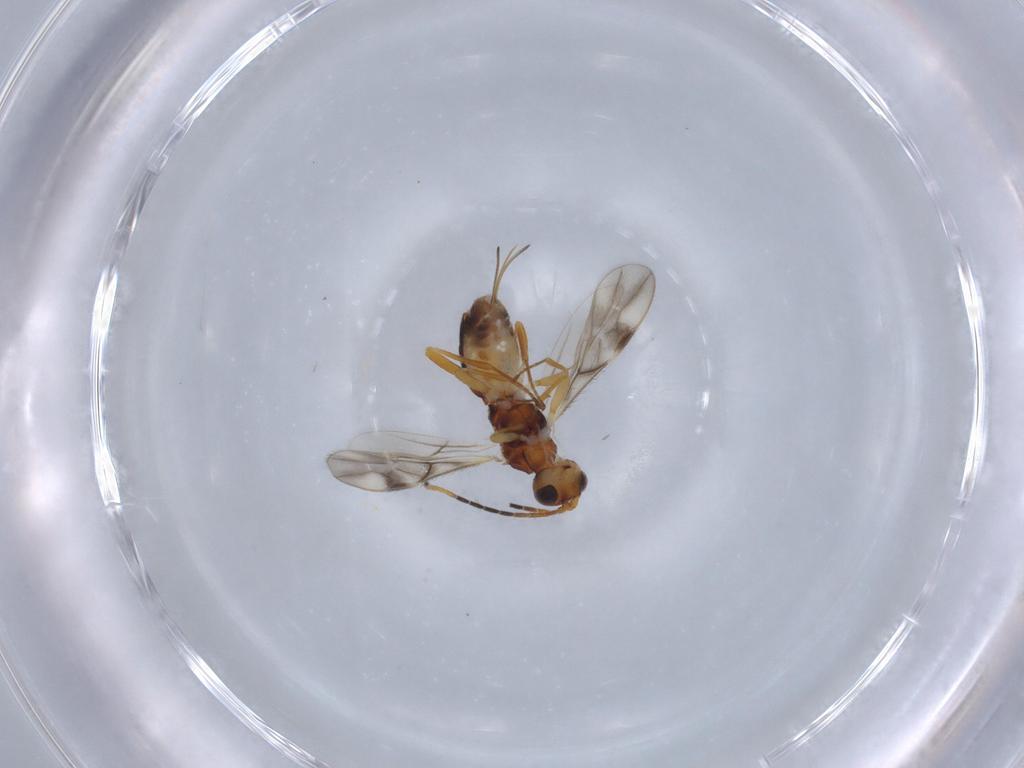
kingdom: Animalia
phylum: Arthropoda
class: Insecta
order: Hymenoptera
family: Braconidae
